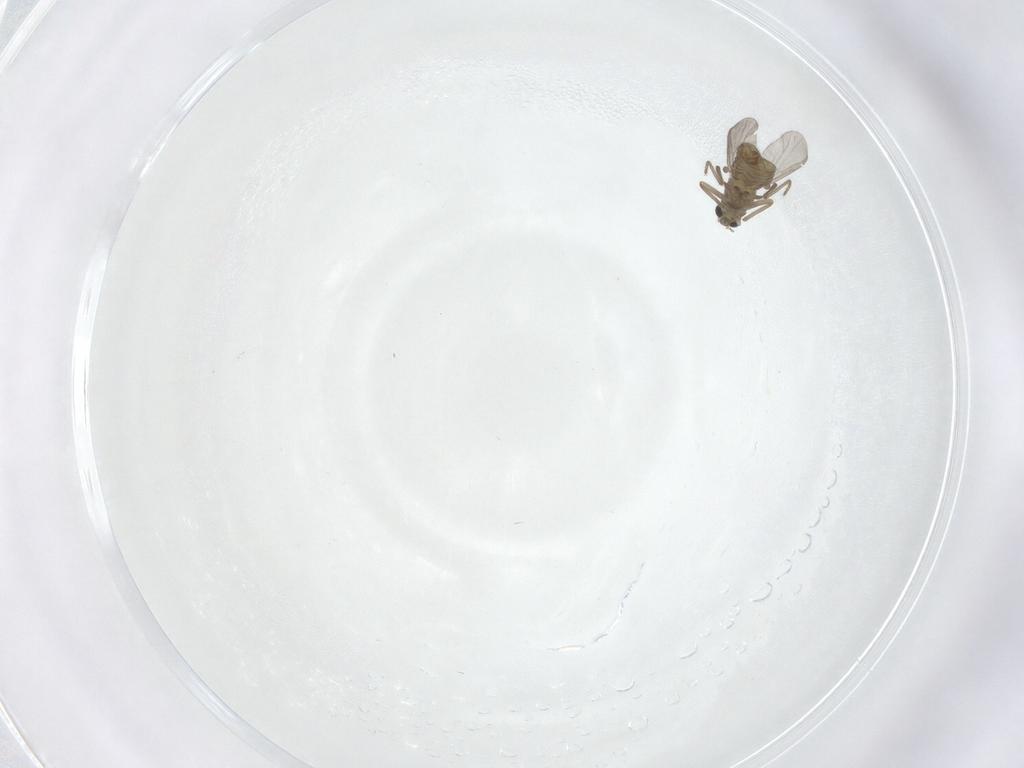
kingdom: Animalia
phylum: Arthropoda
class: Insecta
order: Diptera
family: Chironomidae
